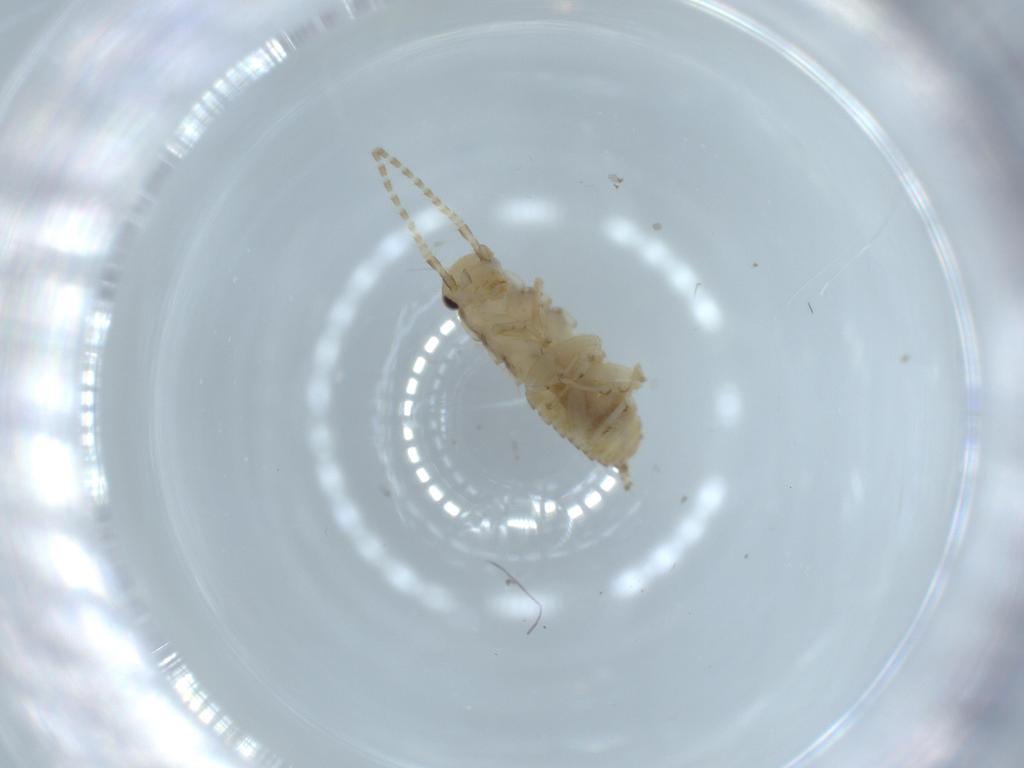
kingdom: Animalia
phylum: Arthropoda
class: Insecta
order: Blattodea
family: Ectobiidae
